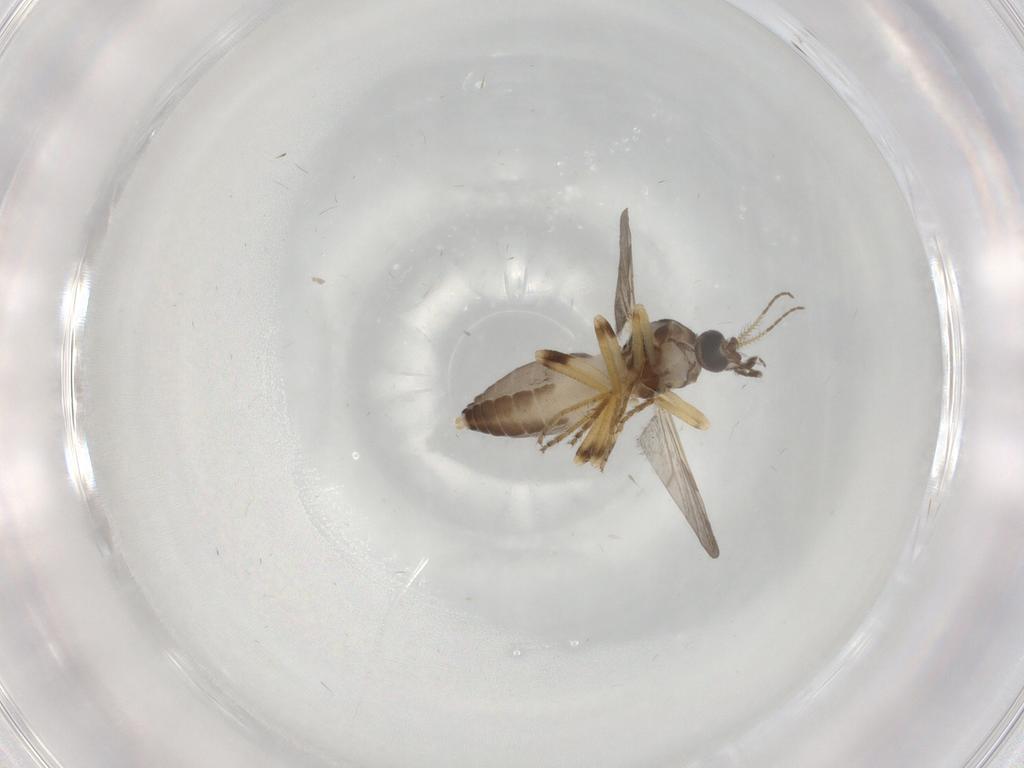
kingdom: Animalia
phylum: Arthropoda
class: Insecta
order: Diptera
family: Ceratopogonidae
